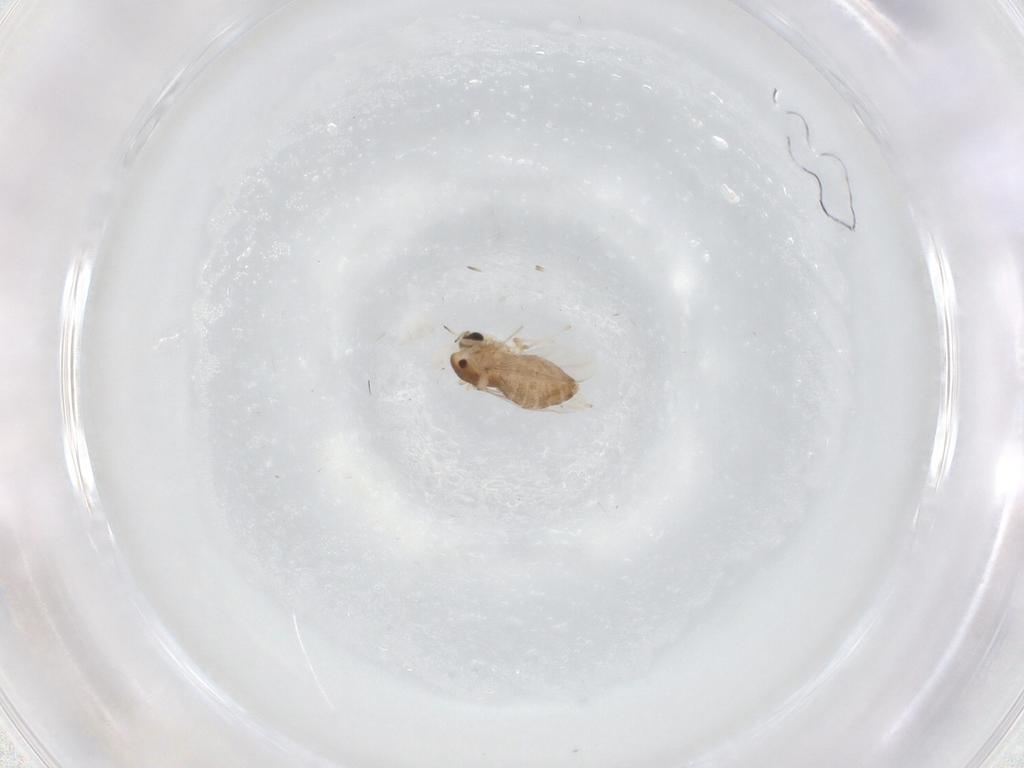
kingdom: Animalia
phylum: Arthropoda
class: Insecta
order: Diptera
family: Chironomidae
